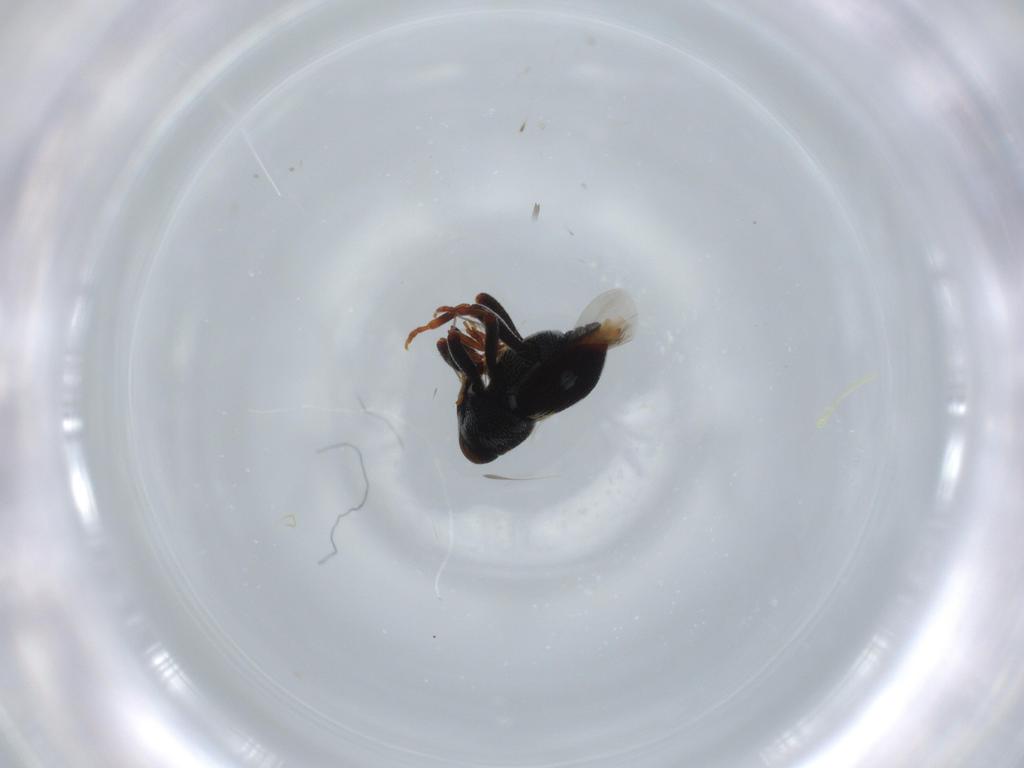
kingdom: Animalia
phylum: Arthropoda
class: Insecta
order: Coleoptera
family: Curculionidae
